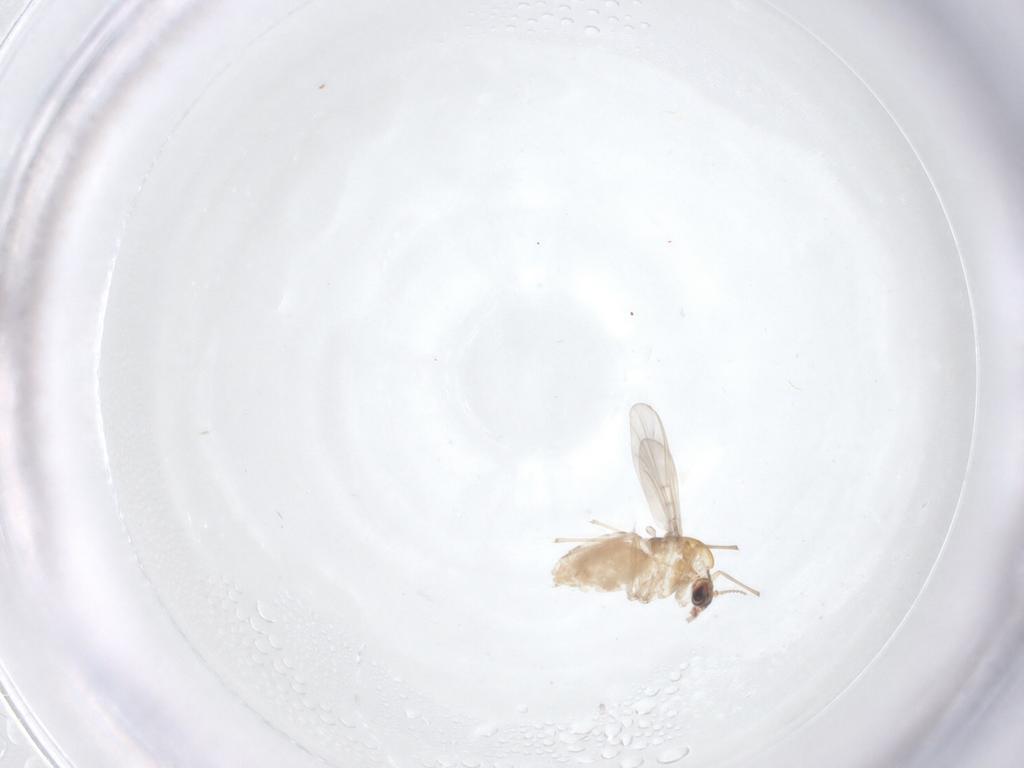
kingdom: Animalia
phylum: Arthropoda
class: Insecta
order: Diptera
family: Chironomidae
